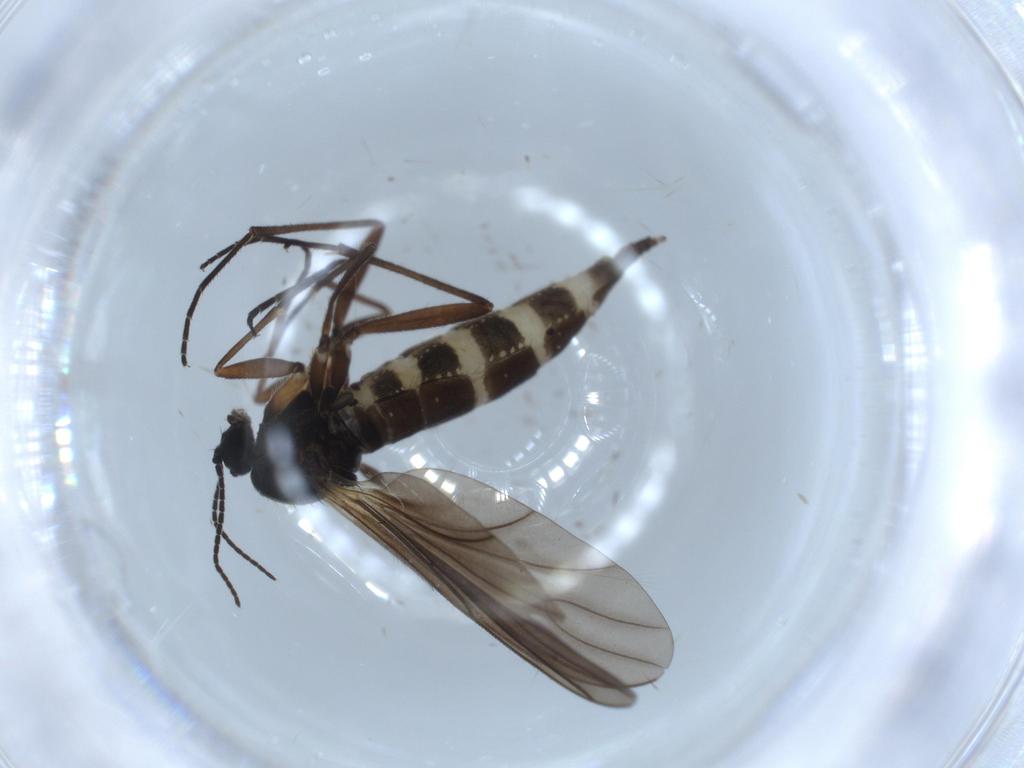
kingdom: Animalia
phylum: Arthropoda
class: Insecta
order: Diptera
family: Sciaridae
